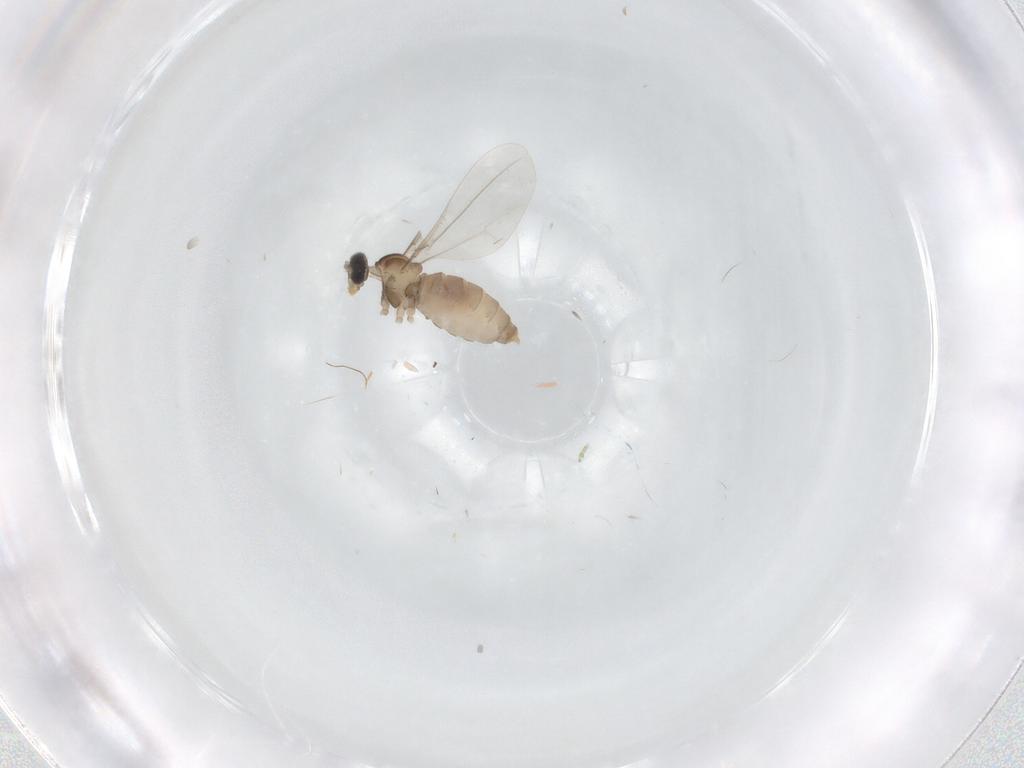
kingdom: Animalia
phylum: Arthropoda
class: Insecta
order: Diptera
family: Cecidomyiidae
